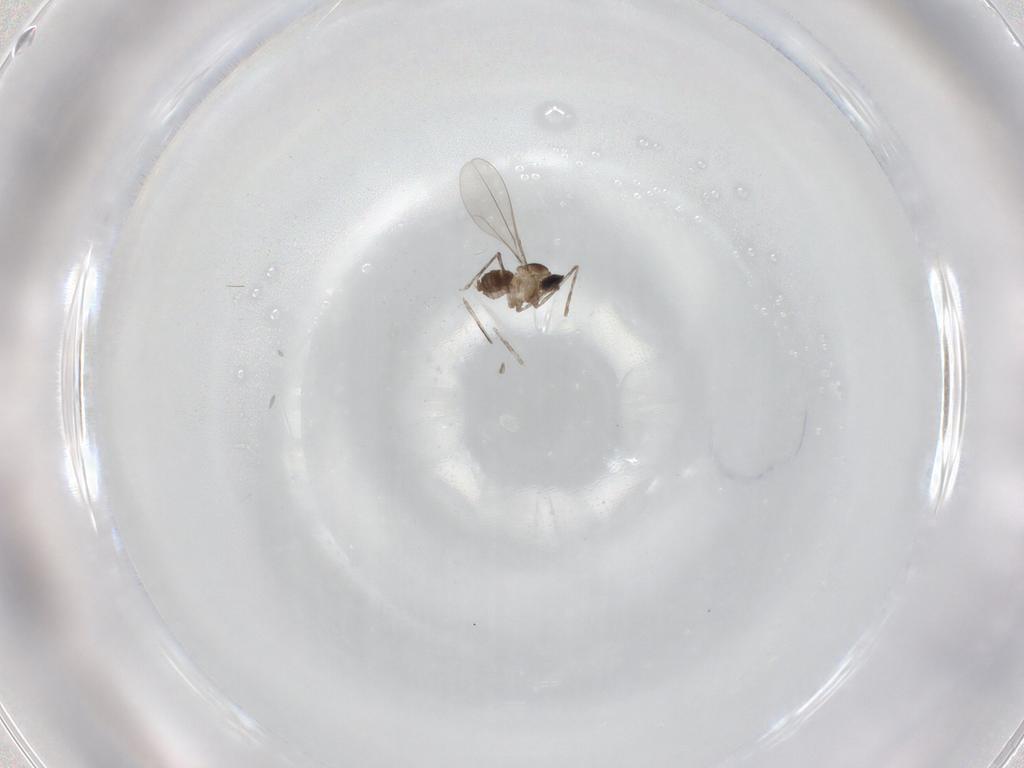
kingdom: Animalia
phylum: Arthropoda
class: Insecta
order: Diptera
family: Cecidomyiidae
